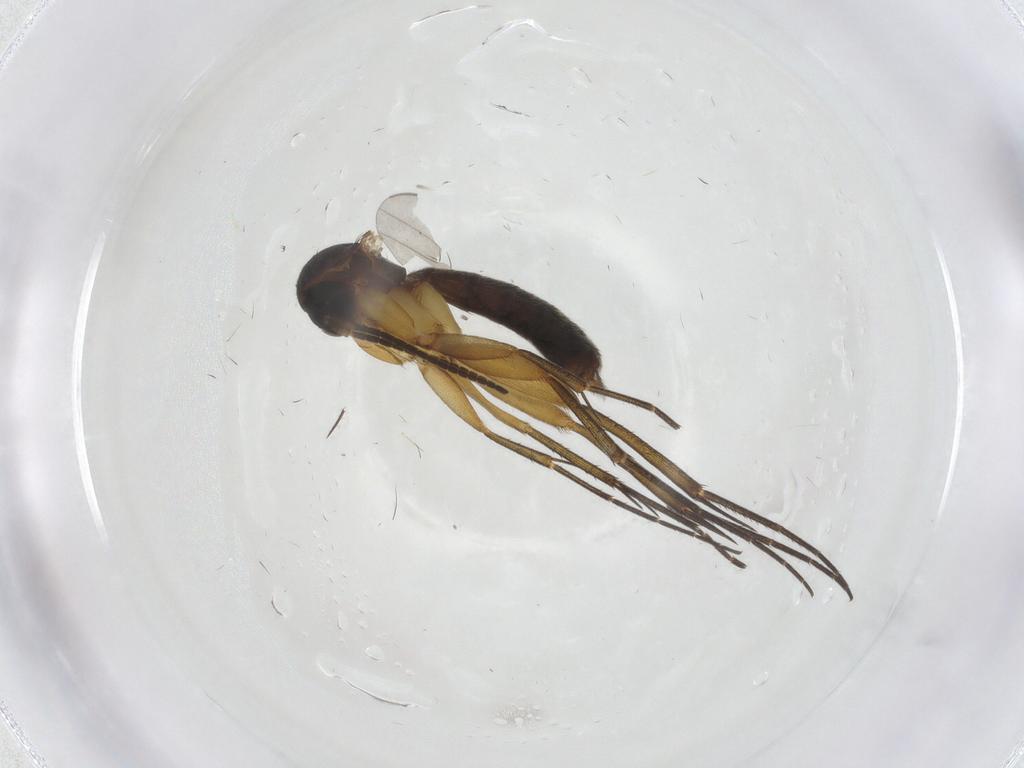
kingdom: Animalia
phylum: Arthropoda
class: Insecta
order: Diptera
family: Mycetophilidae
